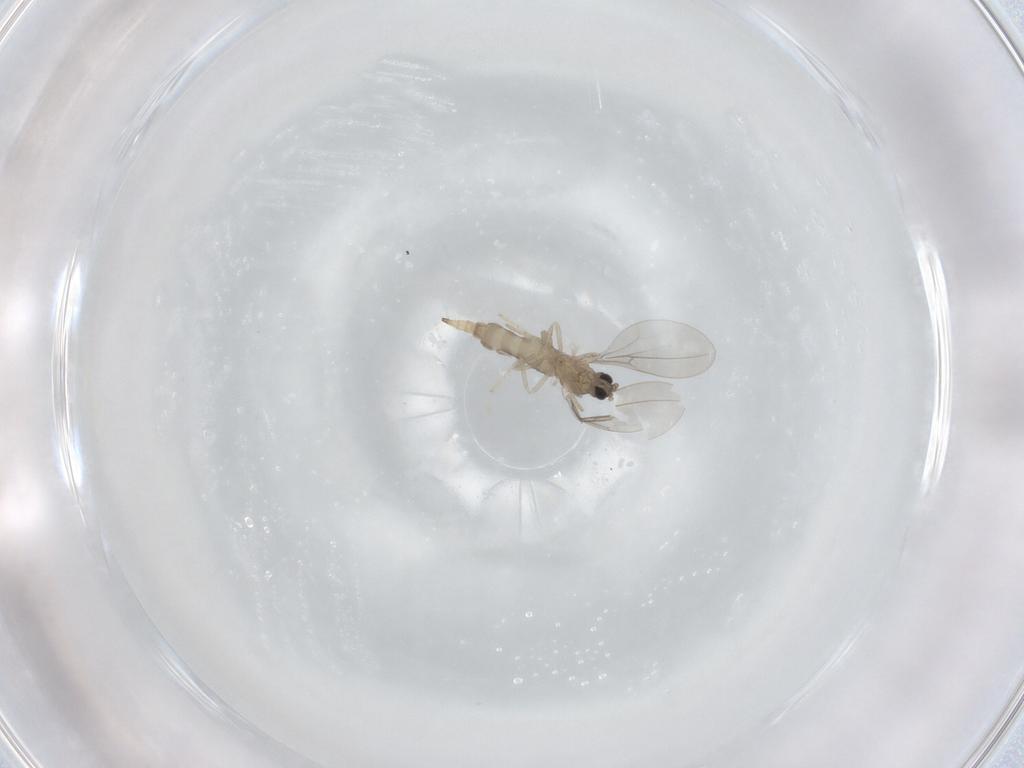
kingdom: Animalia
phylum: Arthropoda
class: Insecta
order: Diptera
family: Cecidomyiidae
